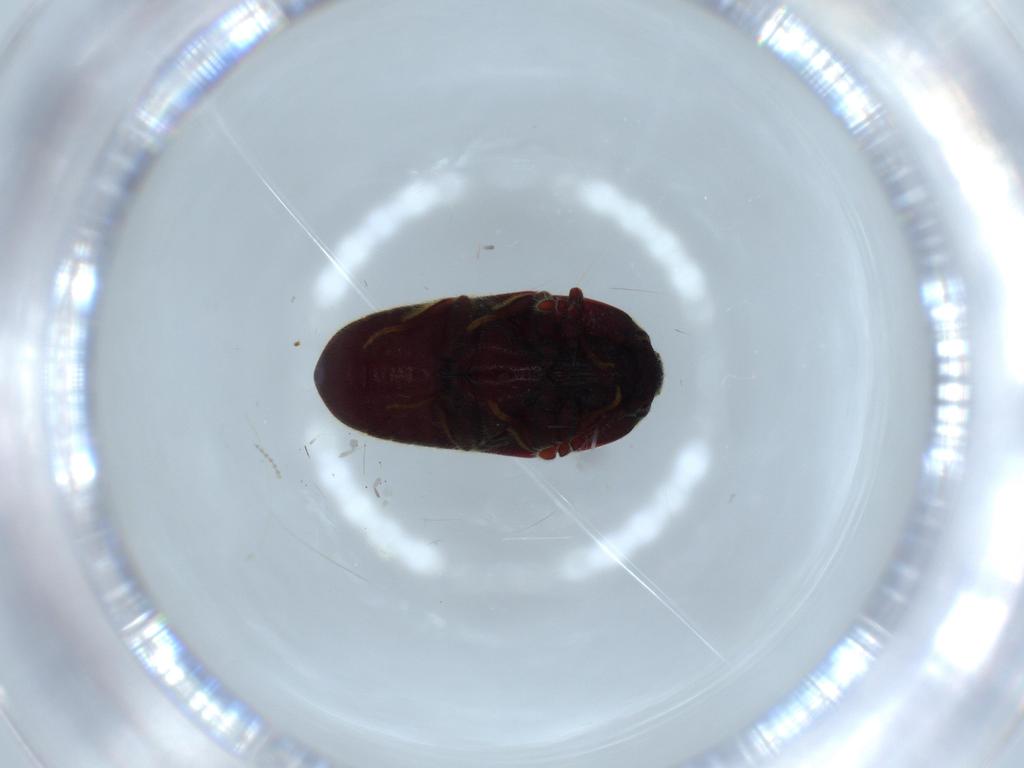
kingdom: Animalia
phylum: Arthropoda
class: Insecta
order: Coleoptera
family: Throscidae
